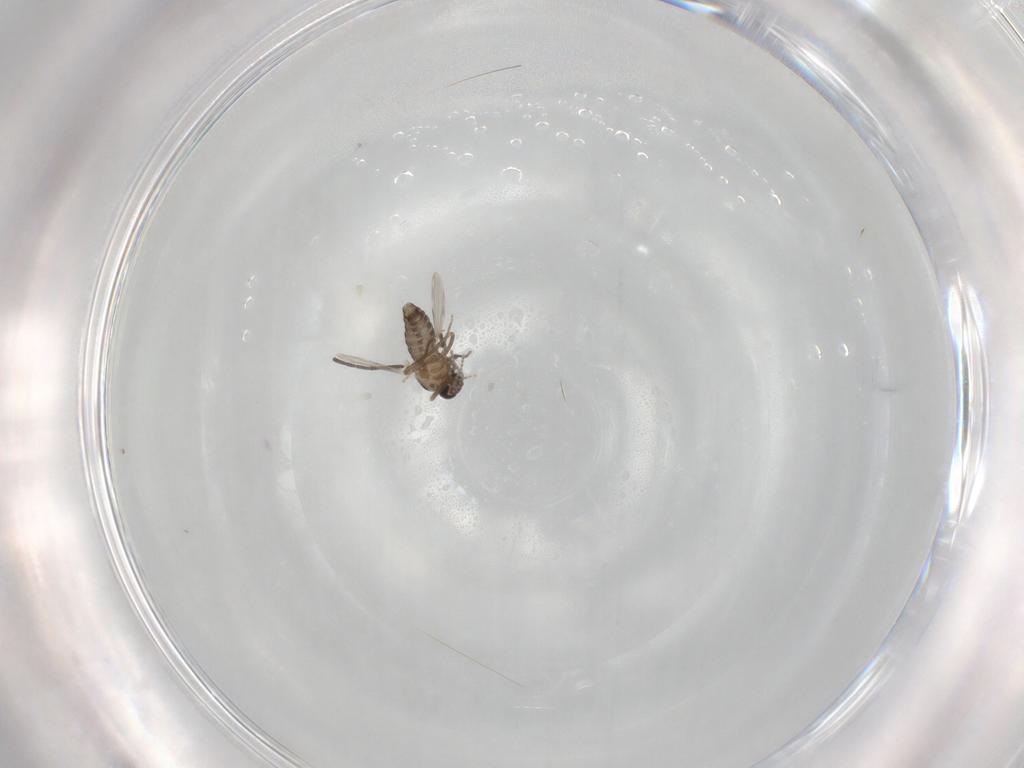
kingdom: Animalia
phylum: Arthropoda
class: Insecta
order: Diptera
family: Ceratopogonidae
